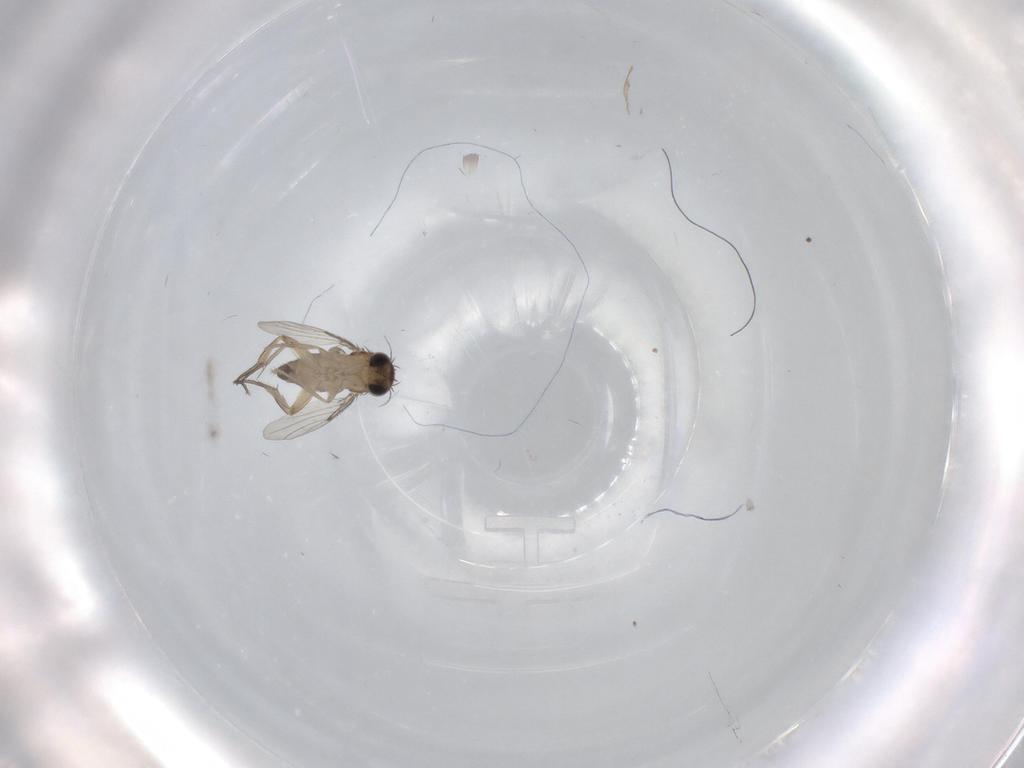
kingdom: Animalia
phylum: Arthropoda
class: Insecta
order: Diptera
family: Phoridae
